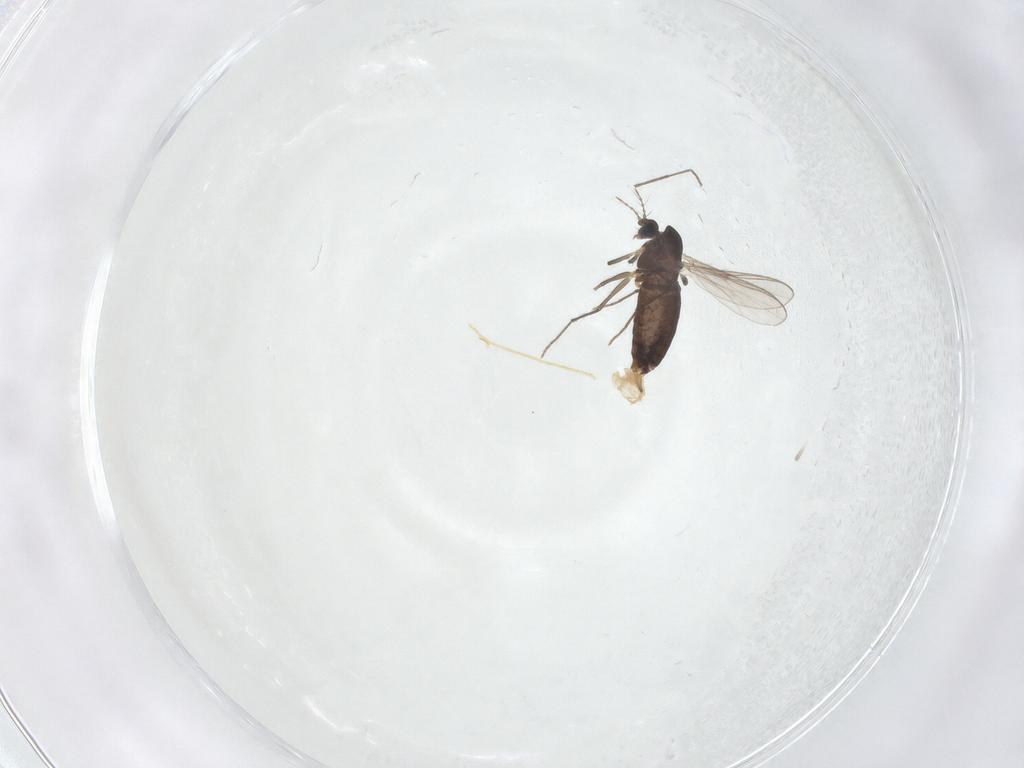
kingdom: Animalia
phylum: Arthropoda
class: Insecta
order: Diptera
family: Chironomidae
